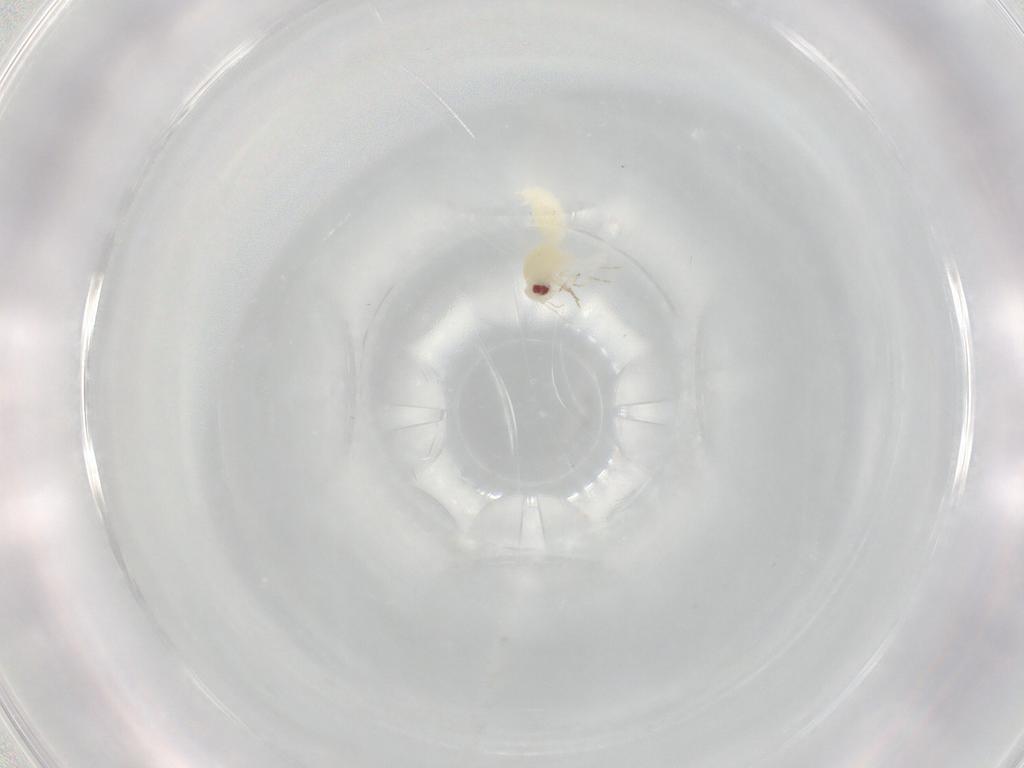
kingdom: Animalia
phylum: Arthropoda
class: Insecta
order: Hemiptera
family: Aleyrodidae
